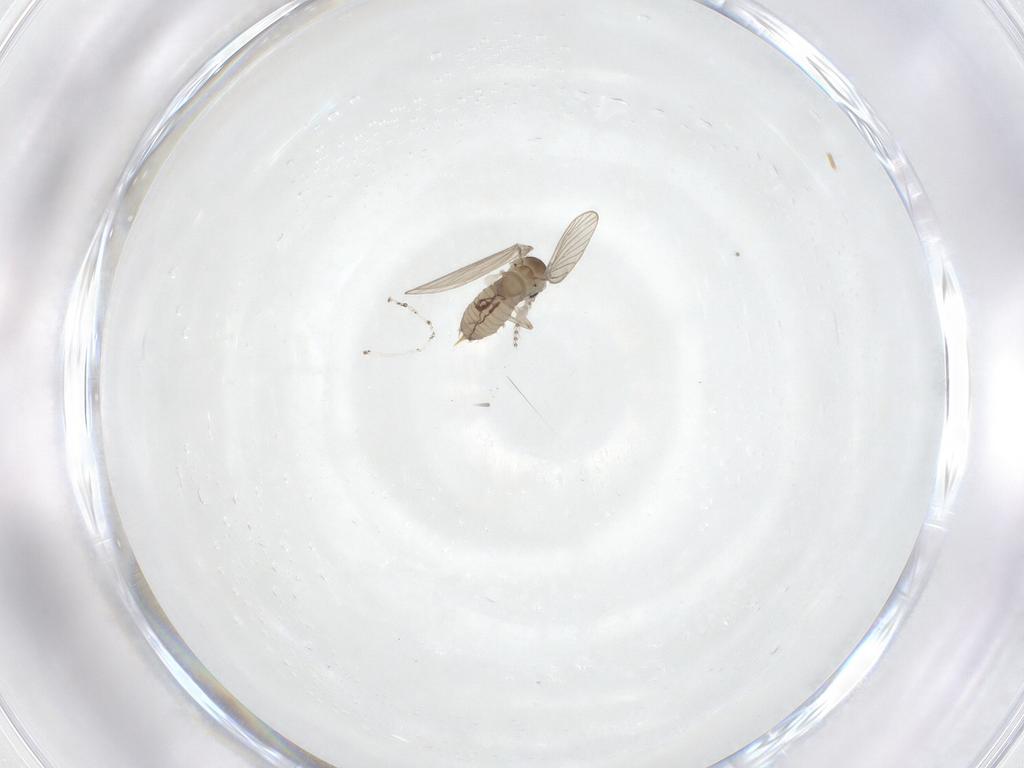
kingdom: Animalia
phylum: Arthropoda
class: Insecta
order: Diptera
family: Psychodidae
